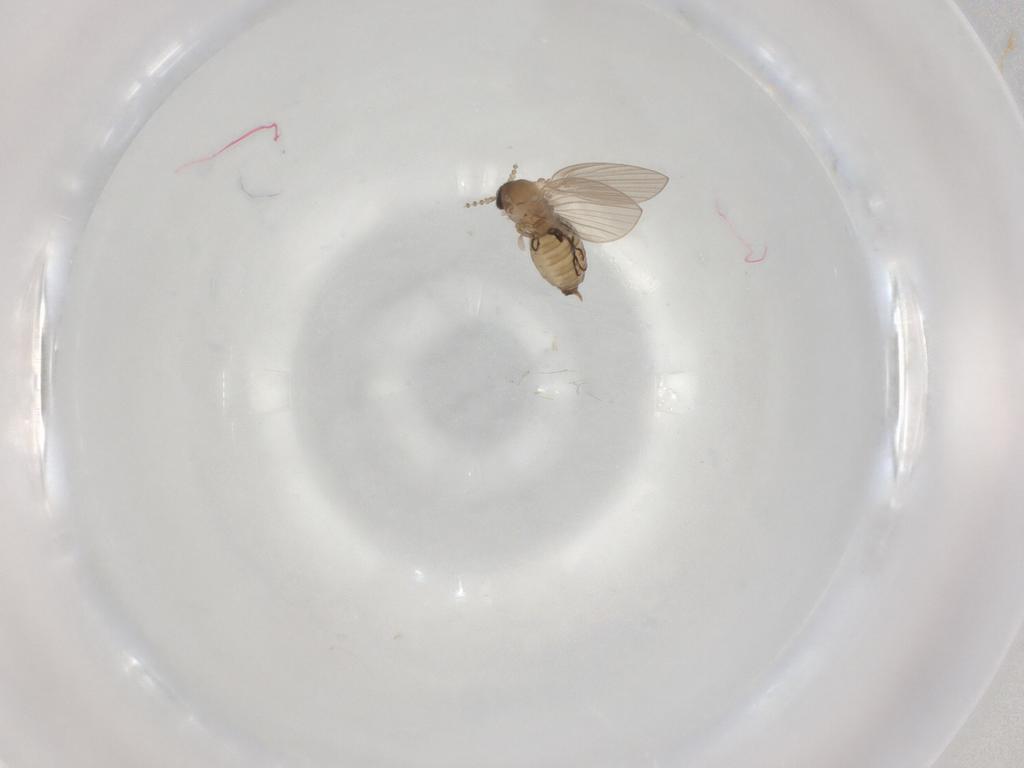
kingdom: Animalia
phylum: Arthropoda
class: Insecta
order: Diptera
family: Psychodidae
